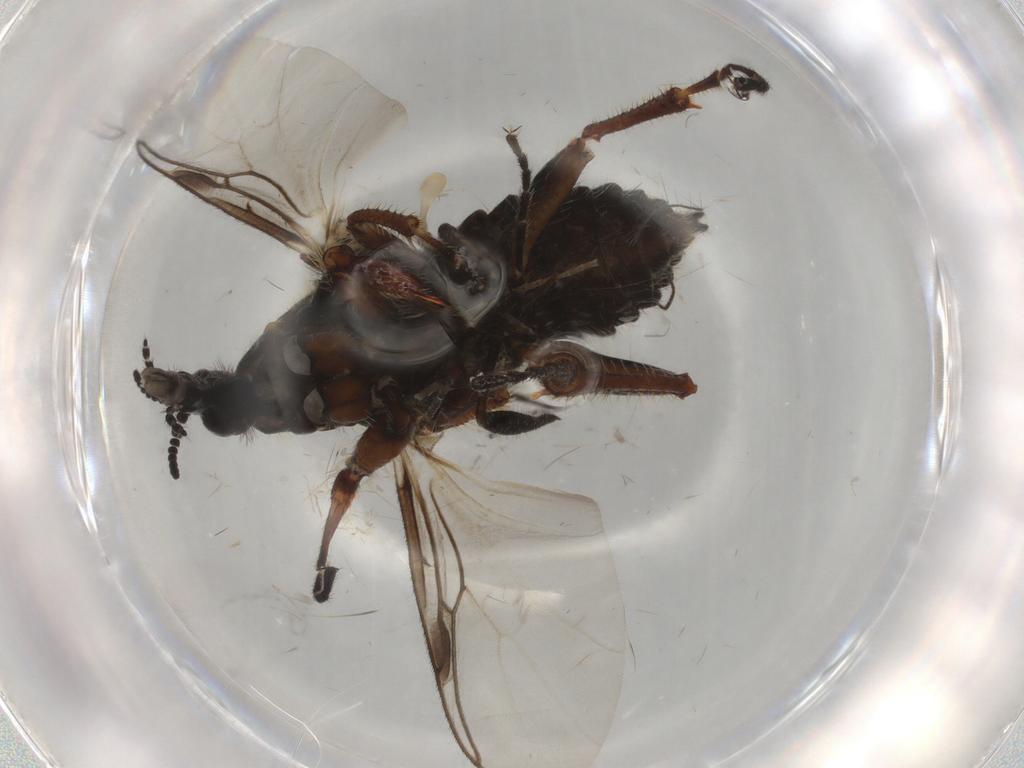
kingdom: Animalia
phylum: Arthropoda
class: Insecta
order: Diptera
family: Bibionidae
